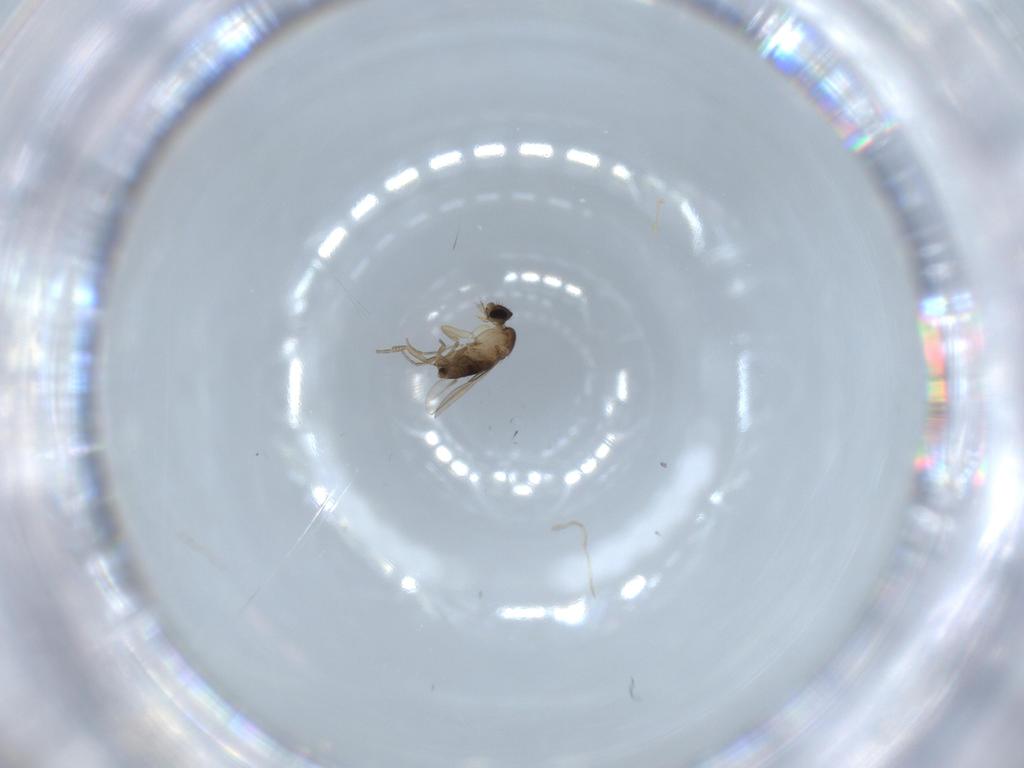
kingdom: Animalia
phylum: Arthropoda
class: Insecta
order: Diptera
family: Phoridae
